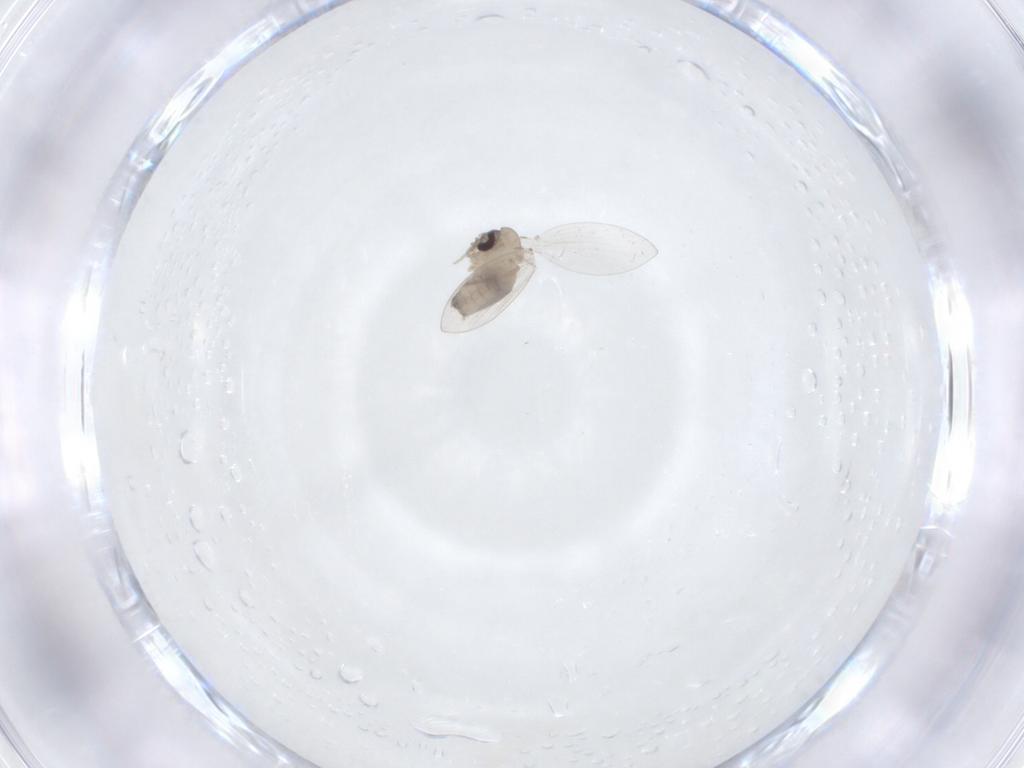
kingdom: Animalia
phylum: Arthropoda
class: Insecta
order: Diptera
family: Psychodidae
